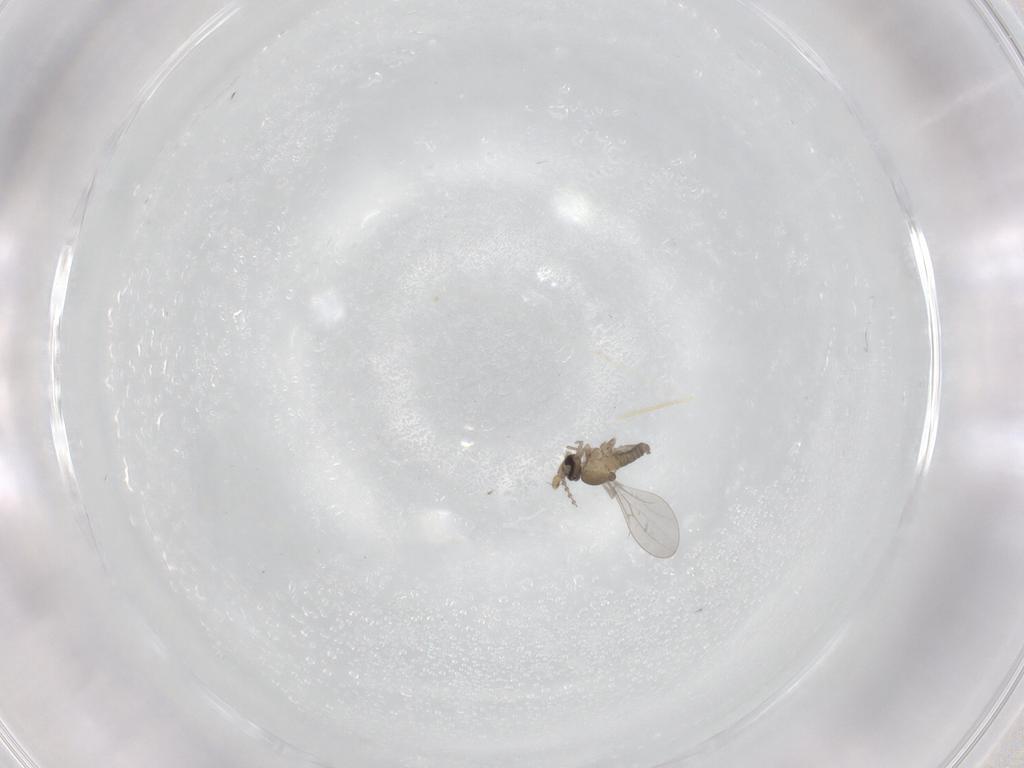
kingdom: Animalia
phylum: Arthropoda
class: Insecta
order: Diptera
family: Cecidomyiidae
